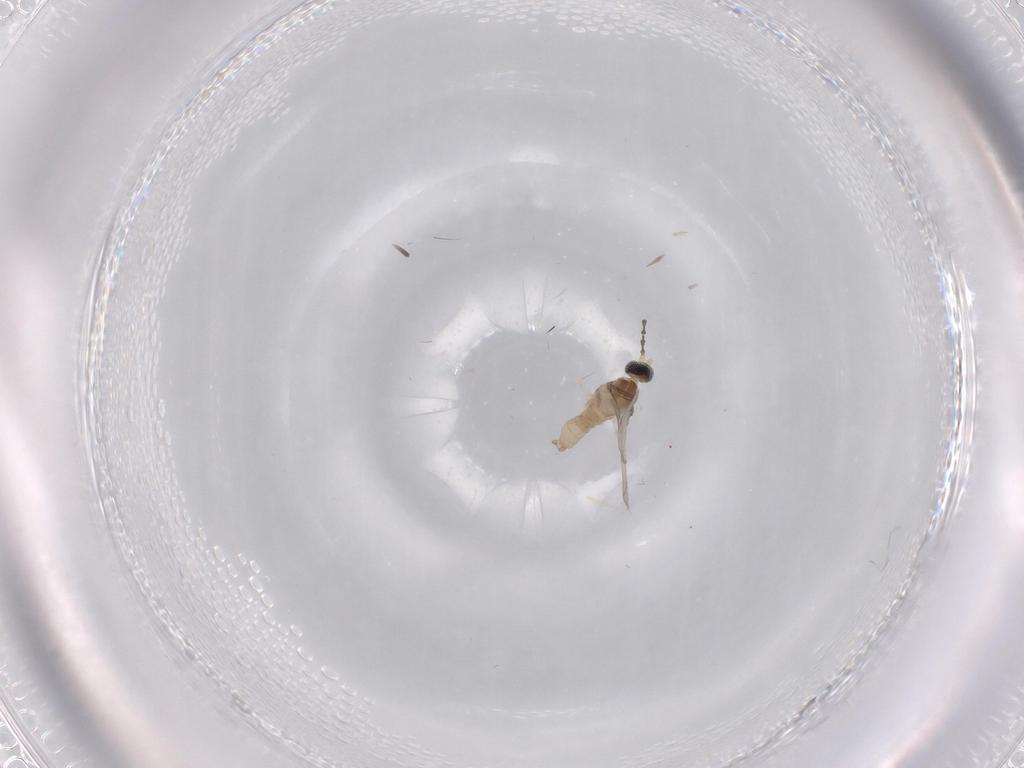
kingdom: Animalia
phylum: Arthropoda
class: Insecta
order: Diptera
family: Cecidomyiidae
